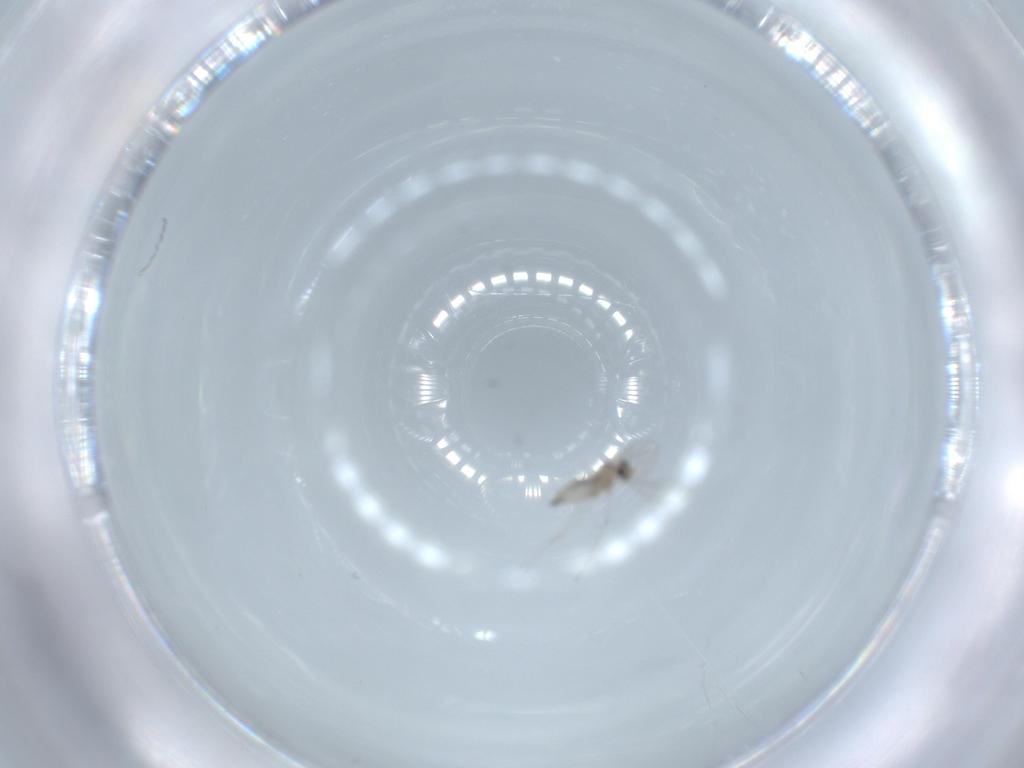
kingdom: Animalia
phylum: Arthropoda
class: Insecta
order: Diptera
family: Cecidomyiidae
